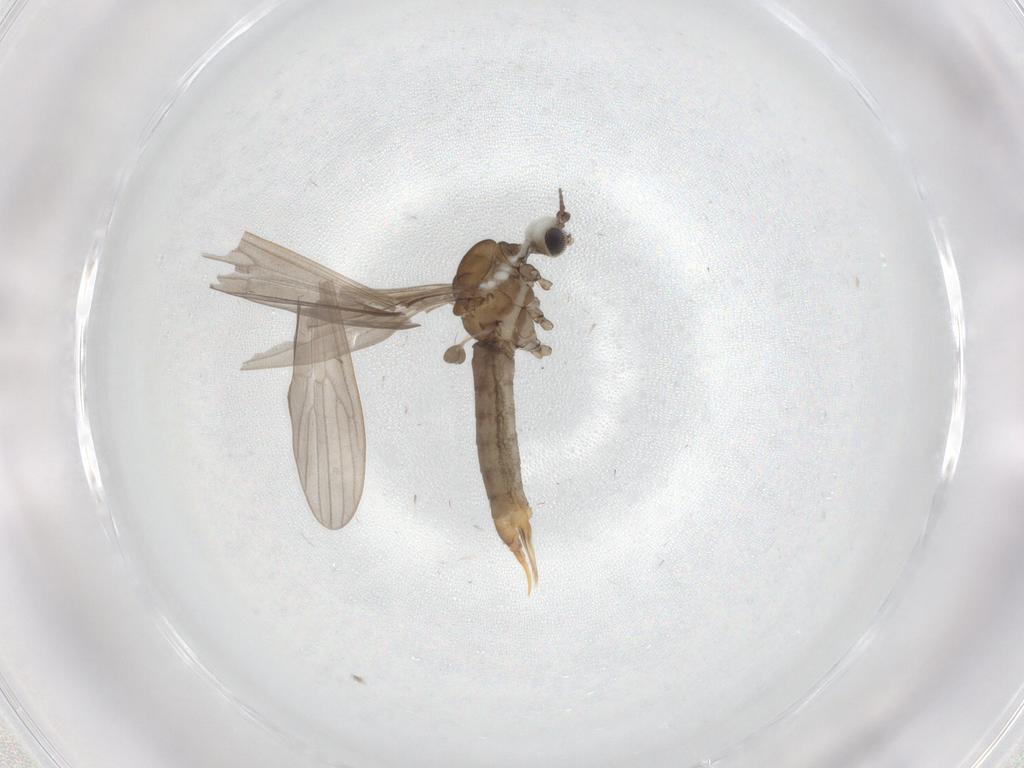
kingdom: Animalia
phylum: Arthropoda
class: Insecta
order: Diptera
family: Cecidomyiidae
